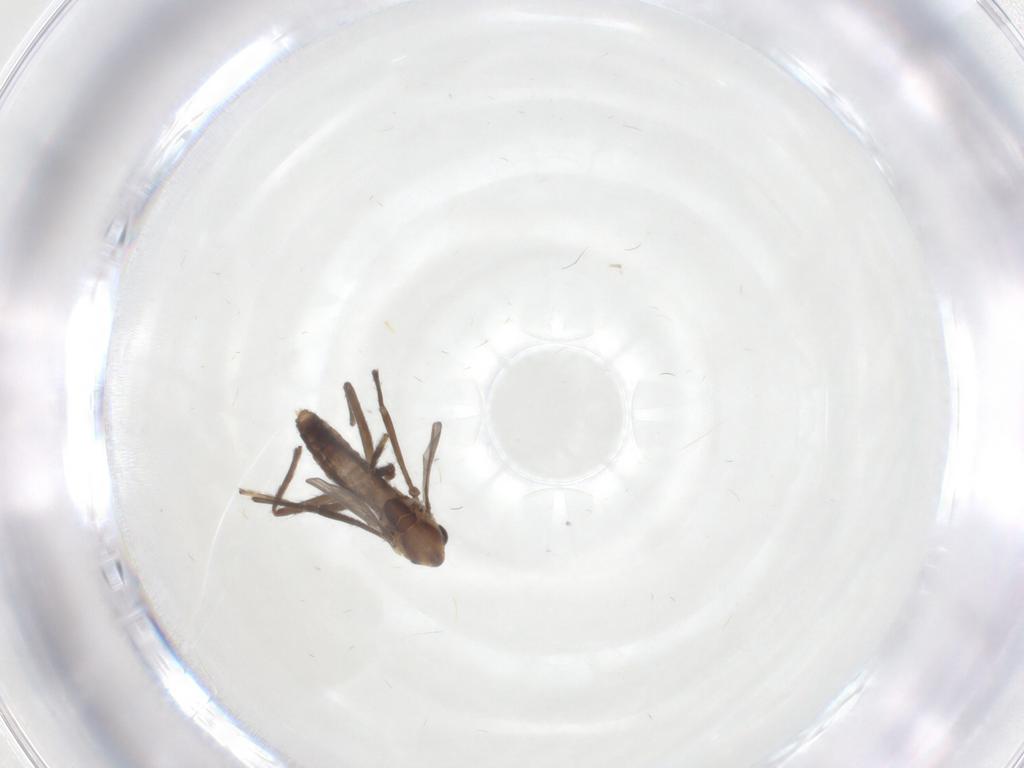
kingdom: Animalia
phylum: Arthropoda
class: Insecta
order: Diptera
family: Chironomidae
